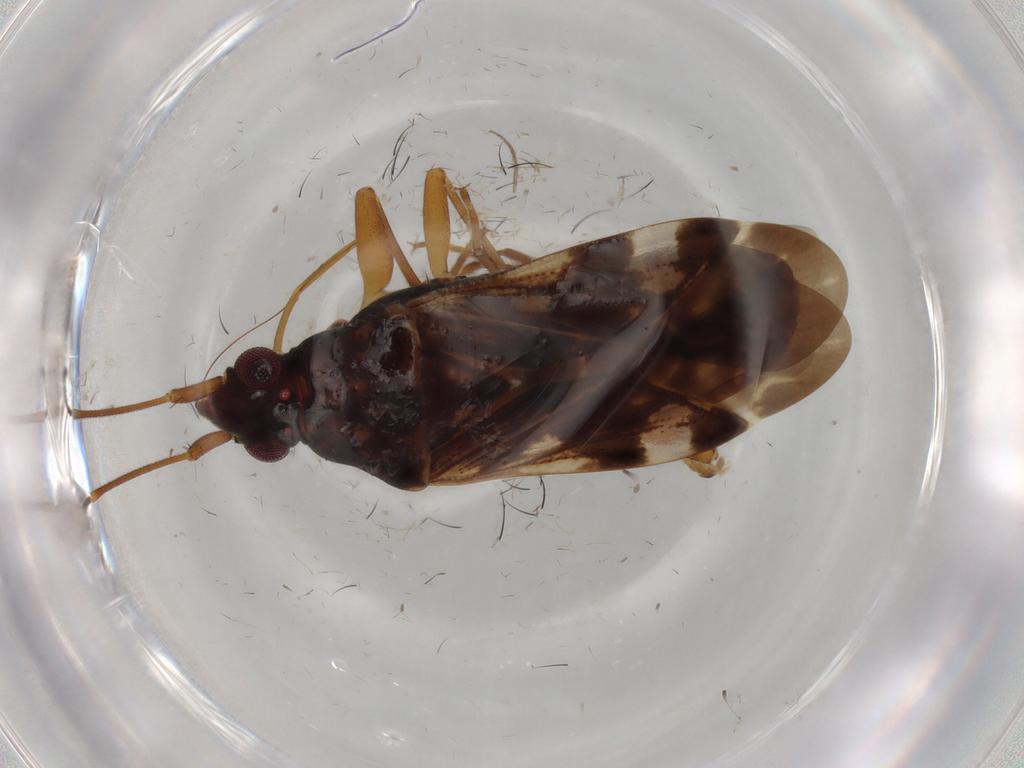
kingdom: Animalia
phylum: Arthropoda
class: Insecta
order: Hemiptera
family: Rhyparochromidae
